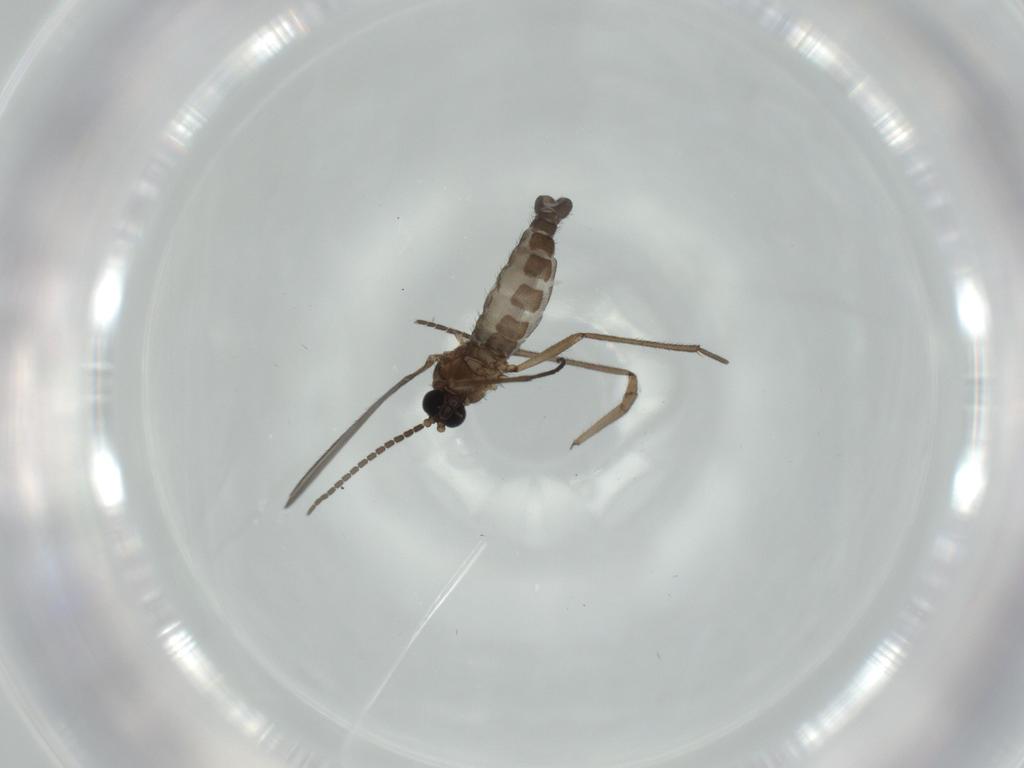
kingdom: Animalia
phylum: Arthropoda
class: Insecta
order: Diptera
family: Sciaridae
